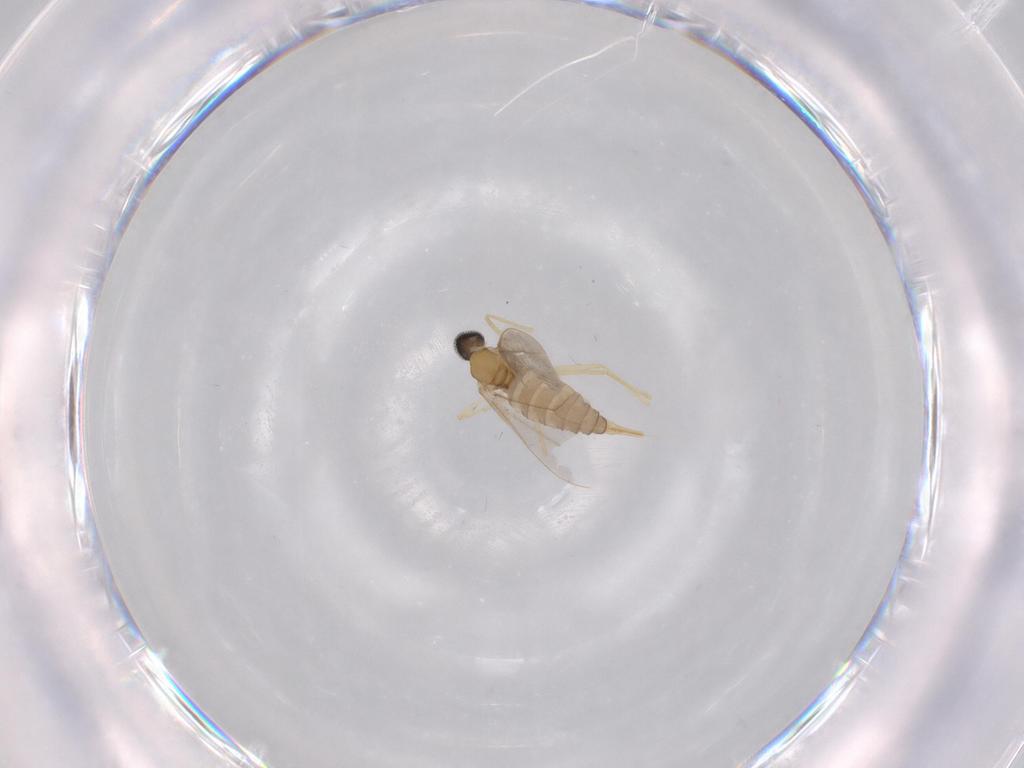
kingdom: Animalia
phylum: Arthropoda
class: Insecta
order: Diptera
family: Cecidomyiidae
